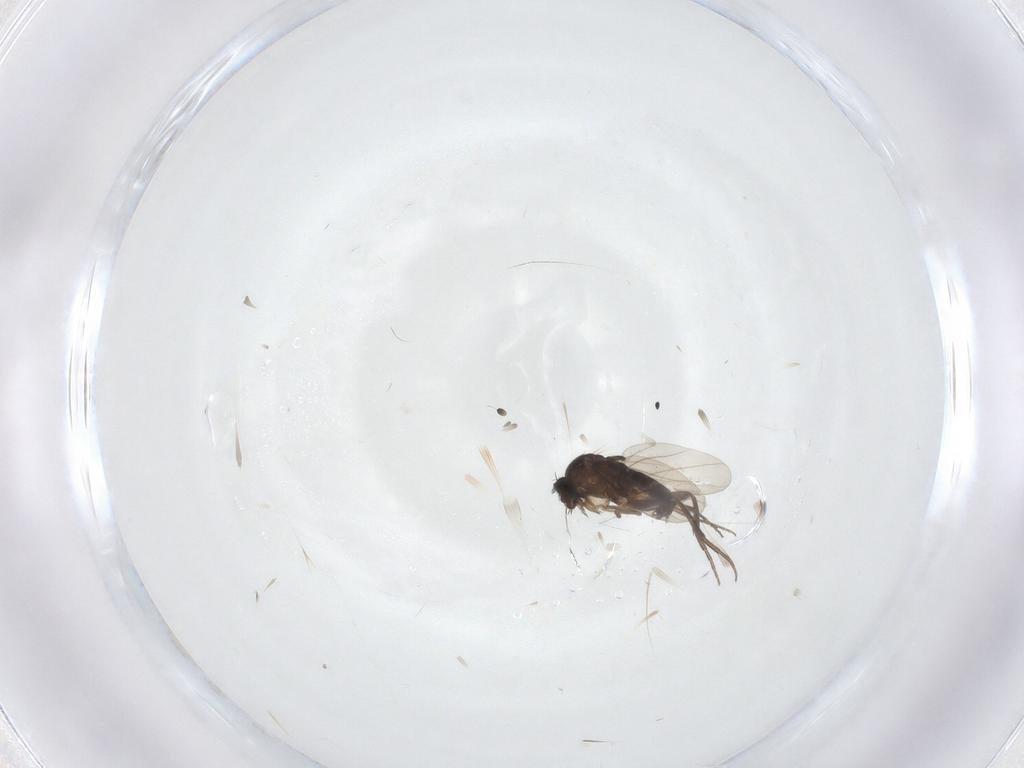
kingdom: Animalia
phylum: Arthropoda
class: Insecta
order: Diptera
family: Phoridae
